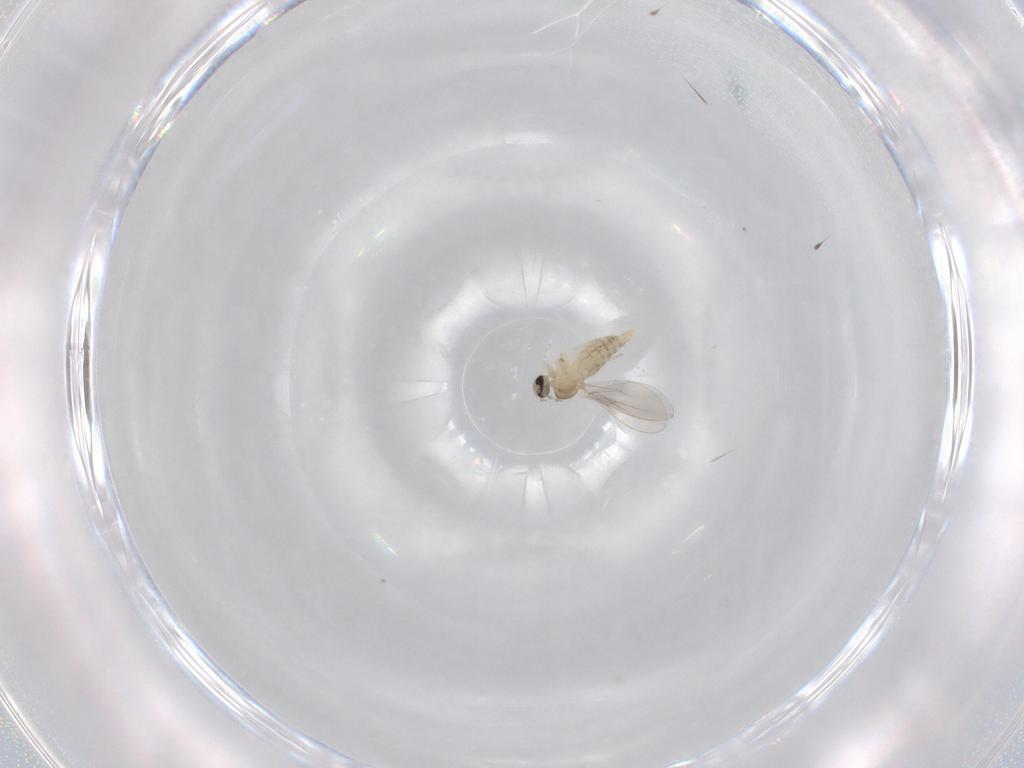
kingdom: Animalia
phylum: Arthropoda
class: Insecta
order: Diptera
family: Cecidomyiidae
